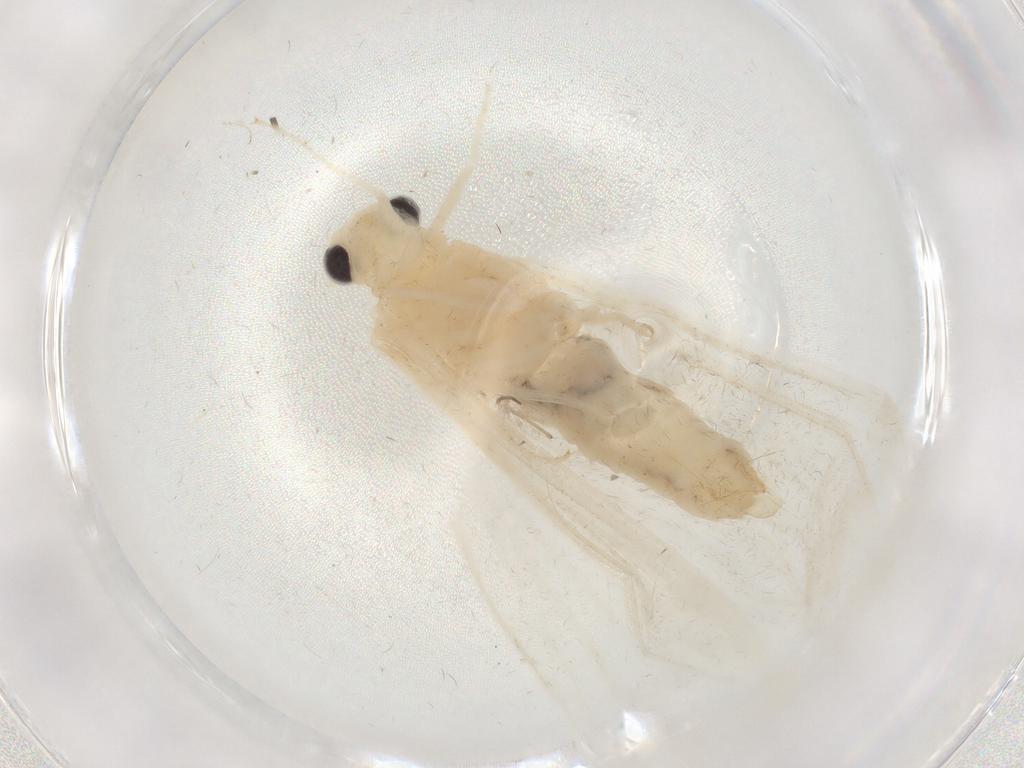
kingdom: Animalia
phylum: Arthropoda
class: Insecta
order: Trichoptera
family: Leptoceridae
